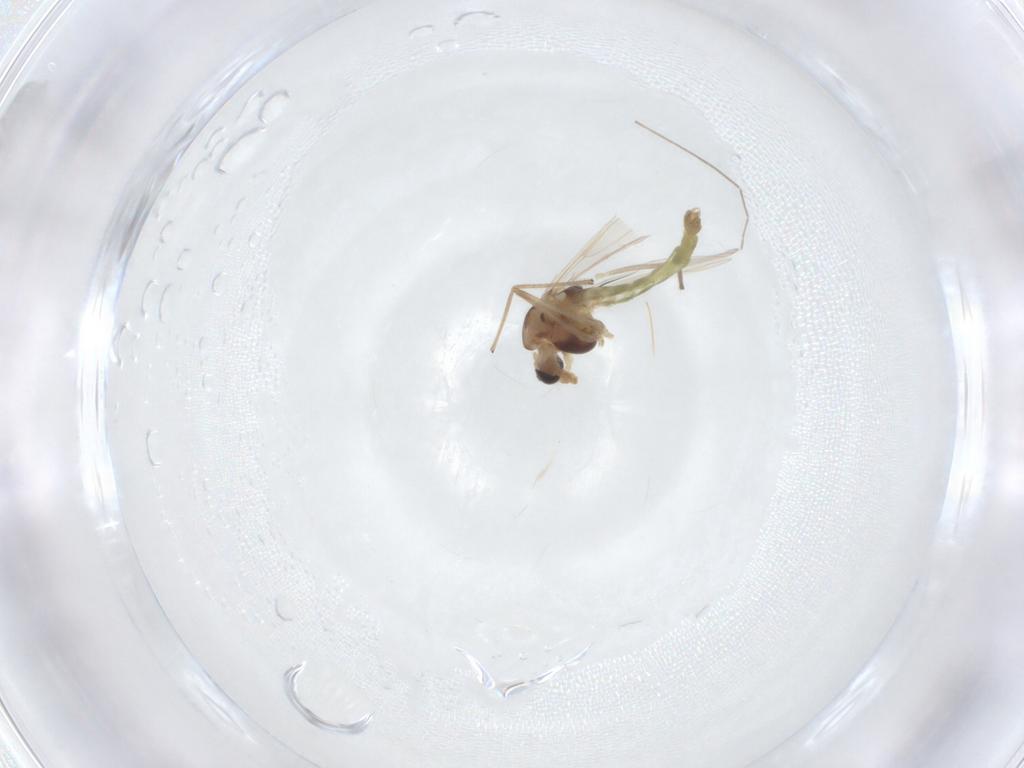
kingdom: Animalia
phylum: Arthropoda
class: Insecta
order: Diptera
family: Chironomidae
